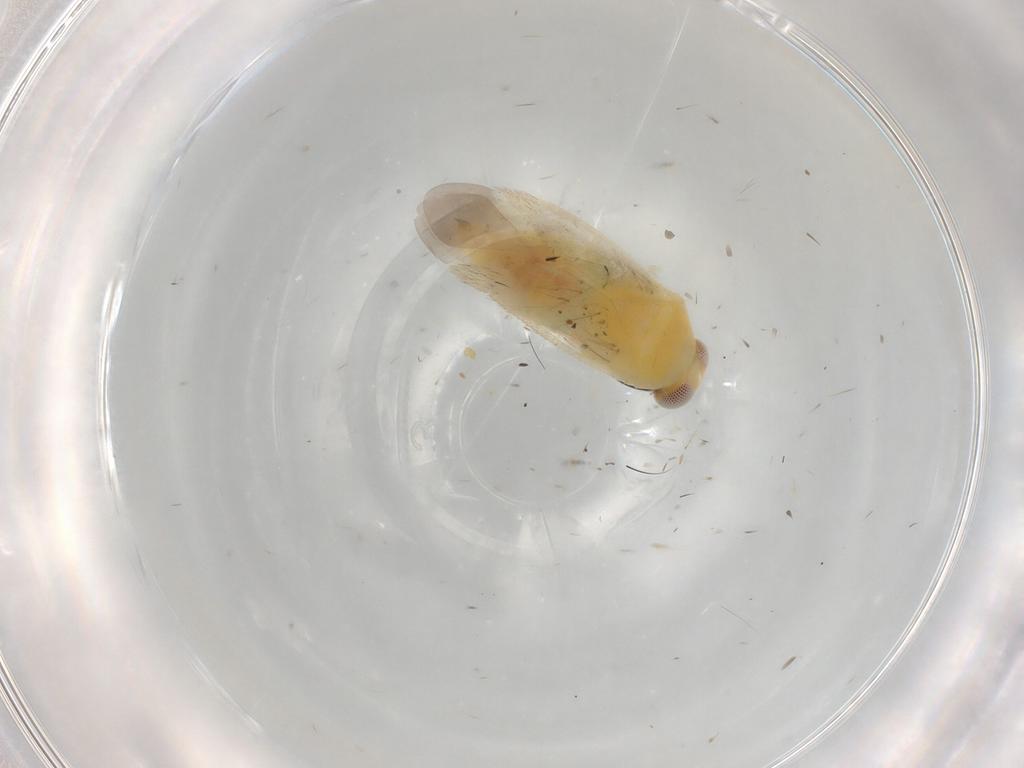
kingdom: Animalia
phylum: Arthropoda
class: Insecta
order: Hemiptera
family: Miridae
